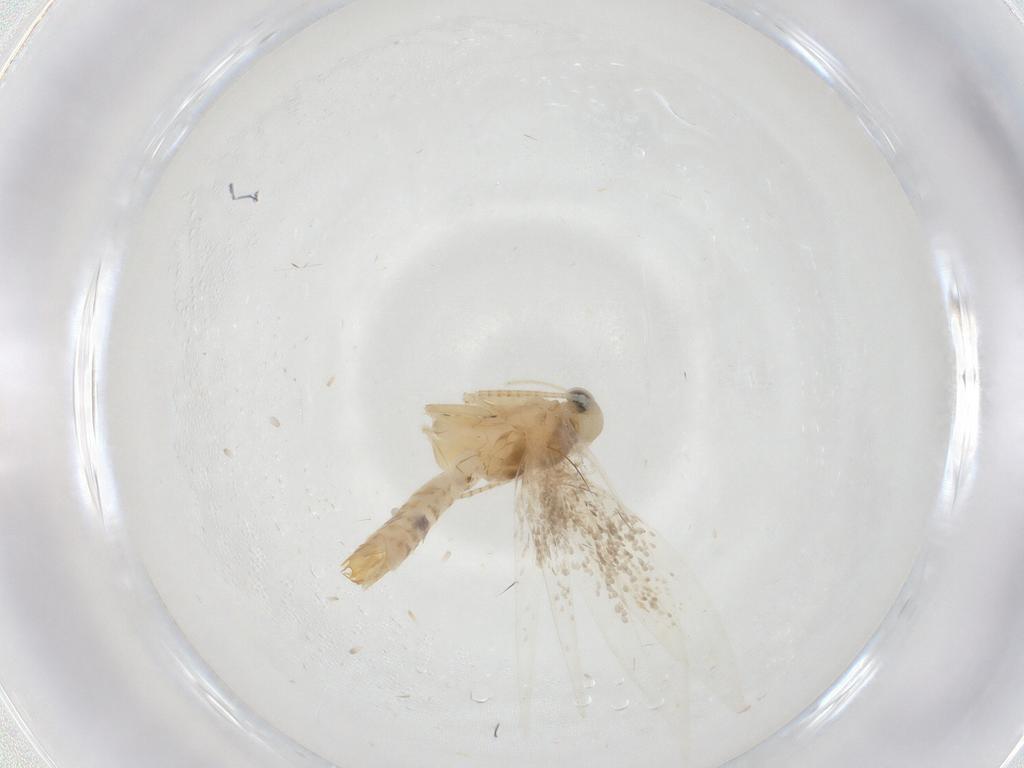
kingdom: Animalia
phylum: Arthropoda
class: Insecta
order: Lepidoptera
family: Gracillariidae
